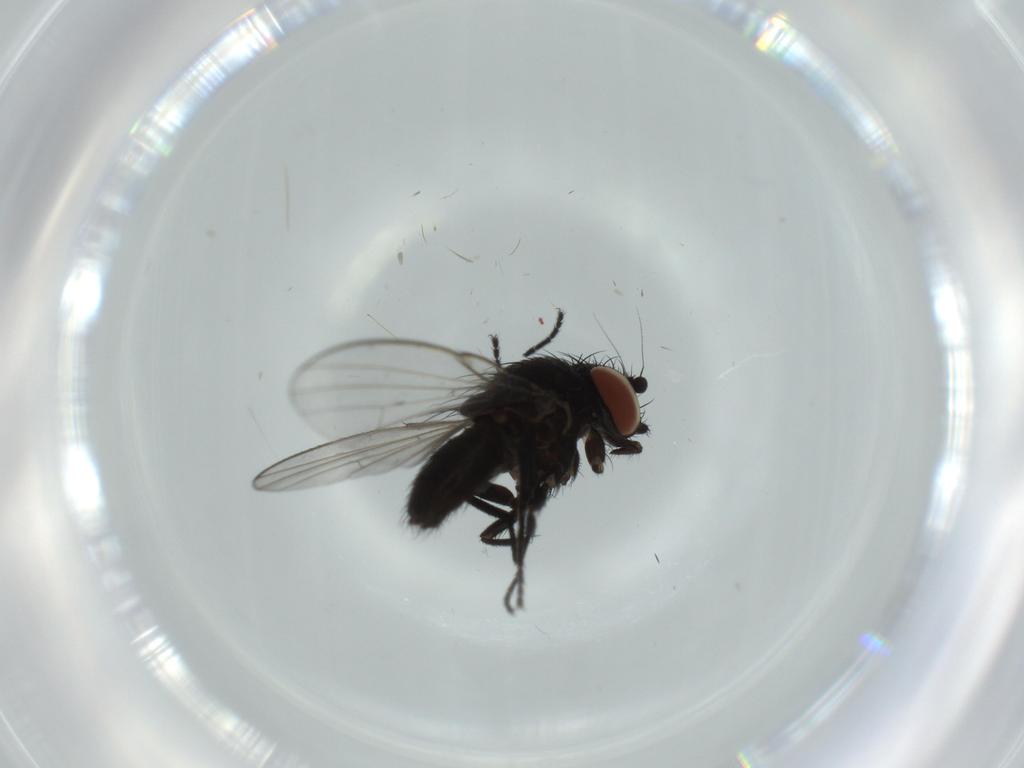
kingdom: Animalia
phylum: Arthropoda
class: Insecta
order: Diptera
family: Milichiidae
